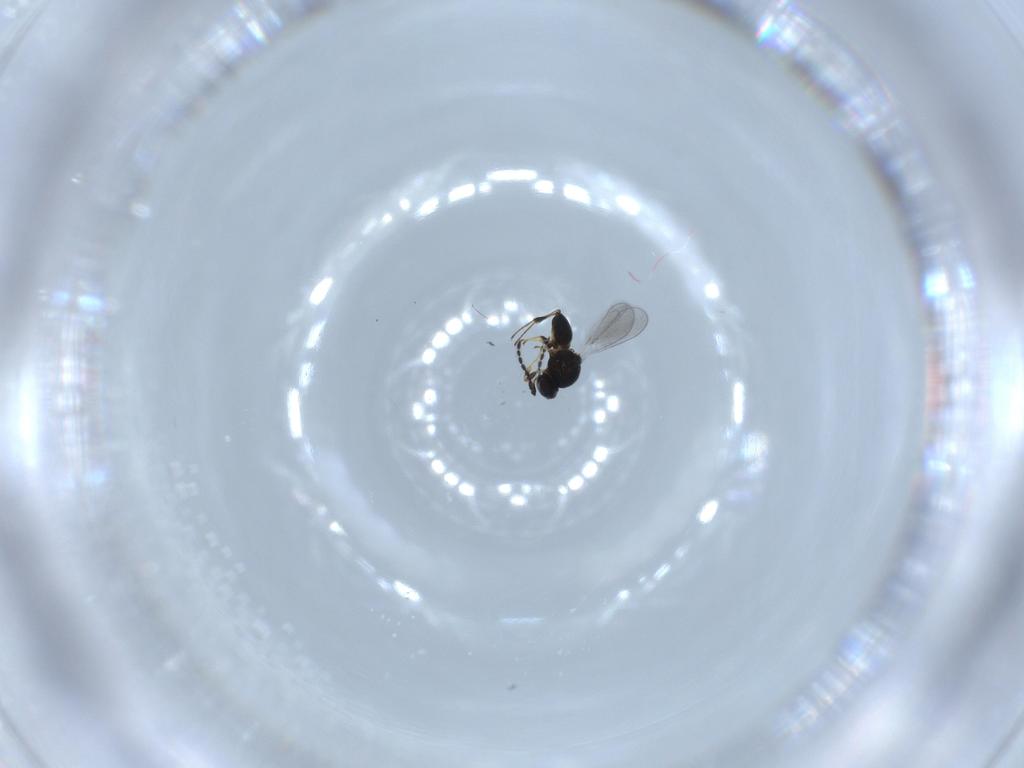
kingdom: Animalia
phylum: Arthropoda
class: Insecta
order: Hymenoptera
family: Platygastridae
